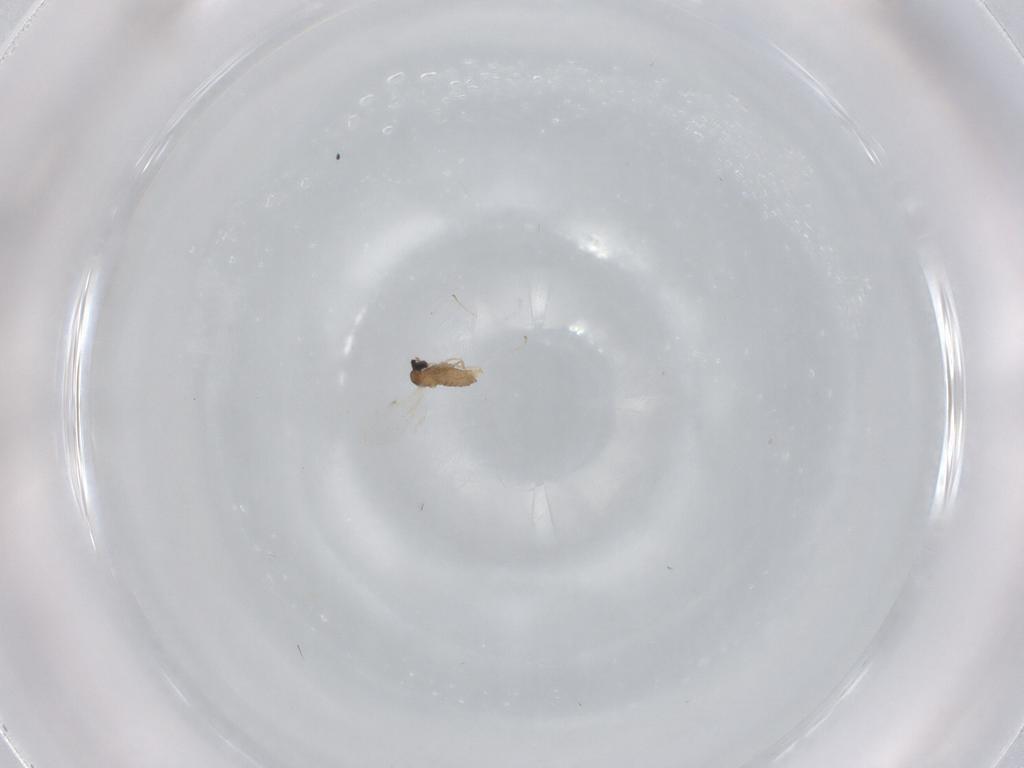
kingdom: Animalia
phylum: Arthropoda
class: Insecta
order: Diptera
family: Cecidomyiidae
